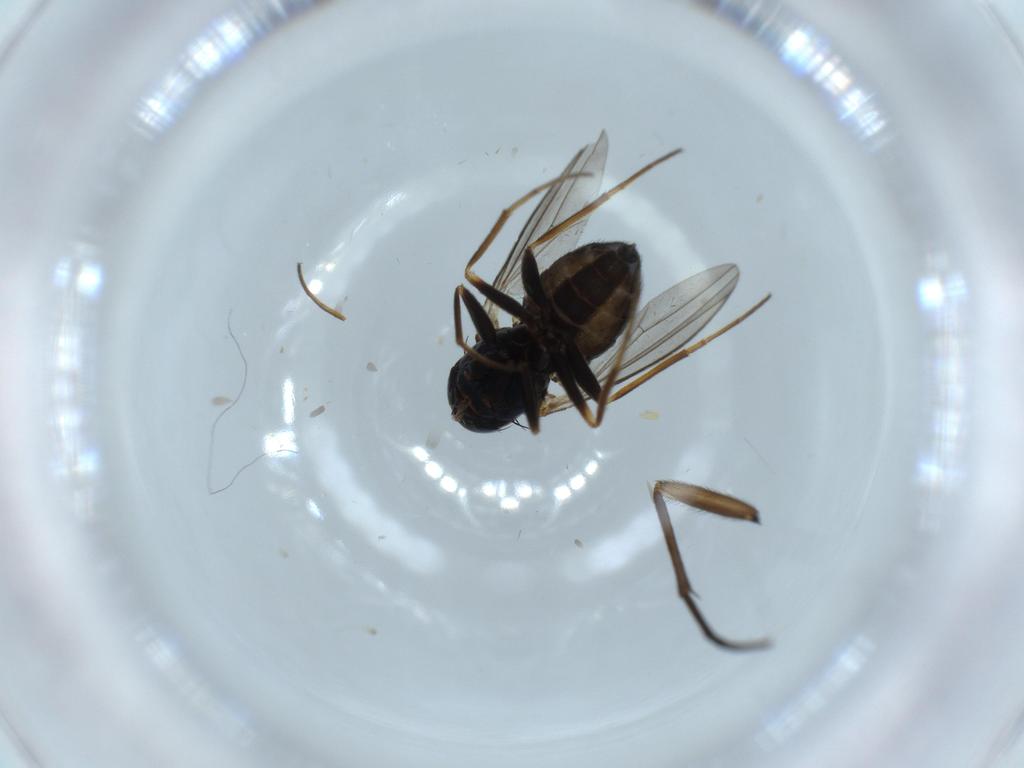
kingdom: Animalia
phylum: Arthropoda
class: Insecta
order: Diptera
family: Dolichopodidae
